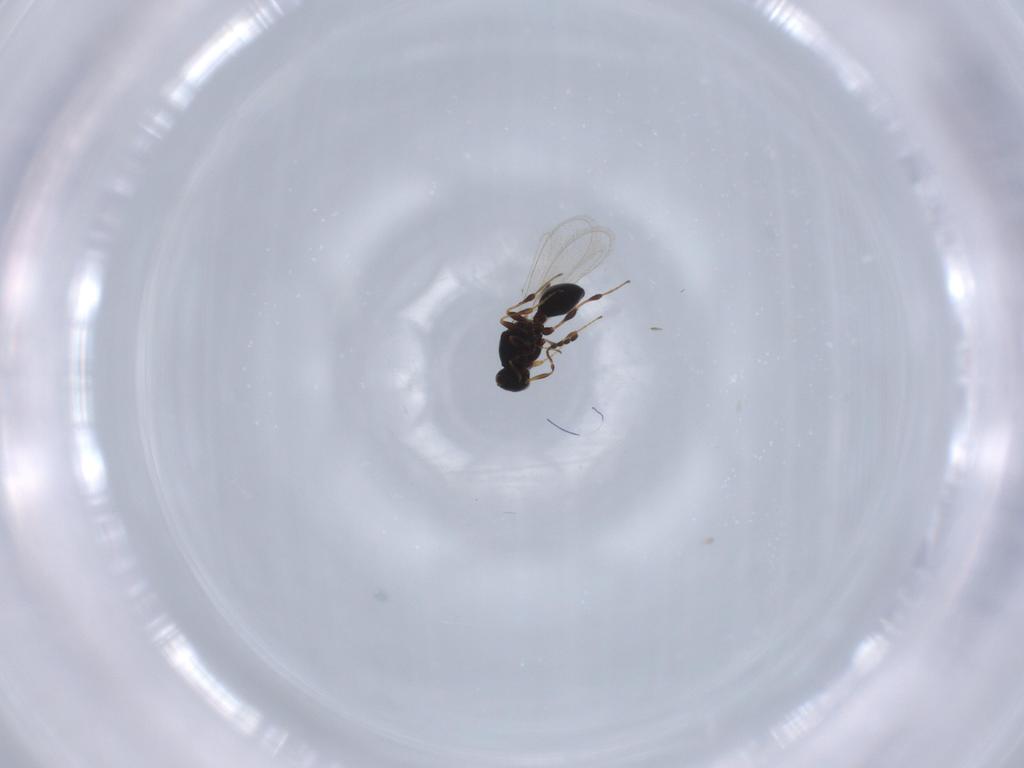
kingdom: Animalia
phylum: Arthropoda
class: Insecta
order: Hymenoptera
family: Platygastridae
